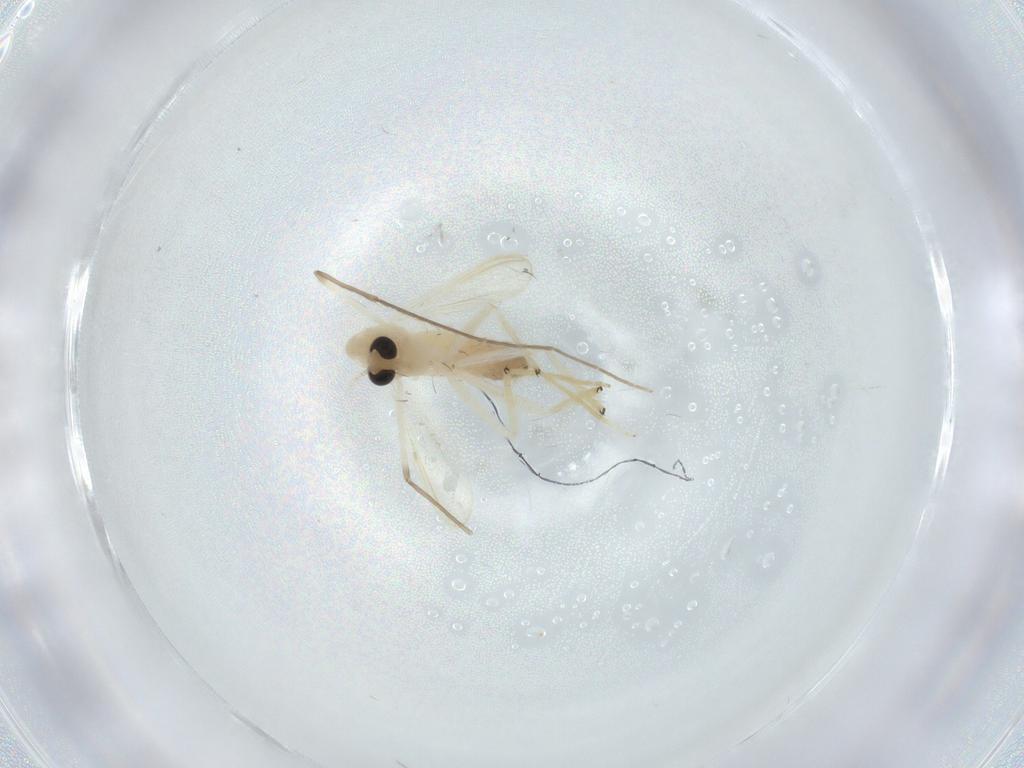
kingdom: Animalia
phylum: Arthropoda
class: Insecta
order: Diptera
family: Chironomidae
